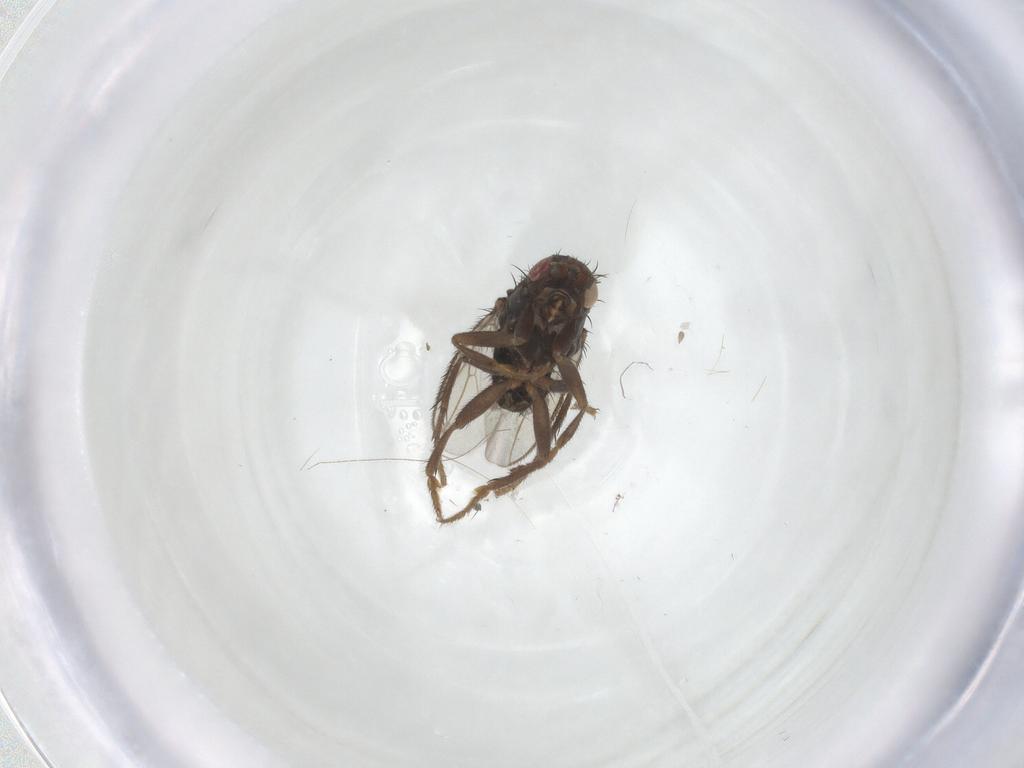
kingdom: Animalia
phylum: Arthropoda
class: Insecta
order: Diptera
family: Sphaeroceridae
